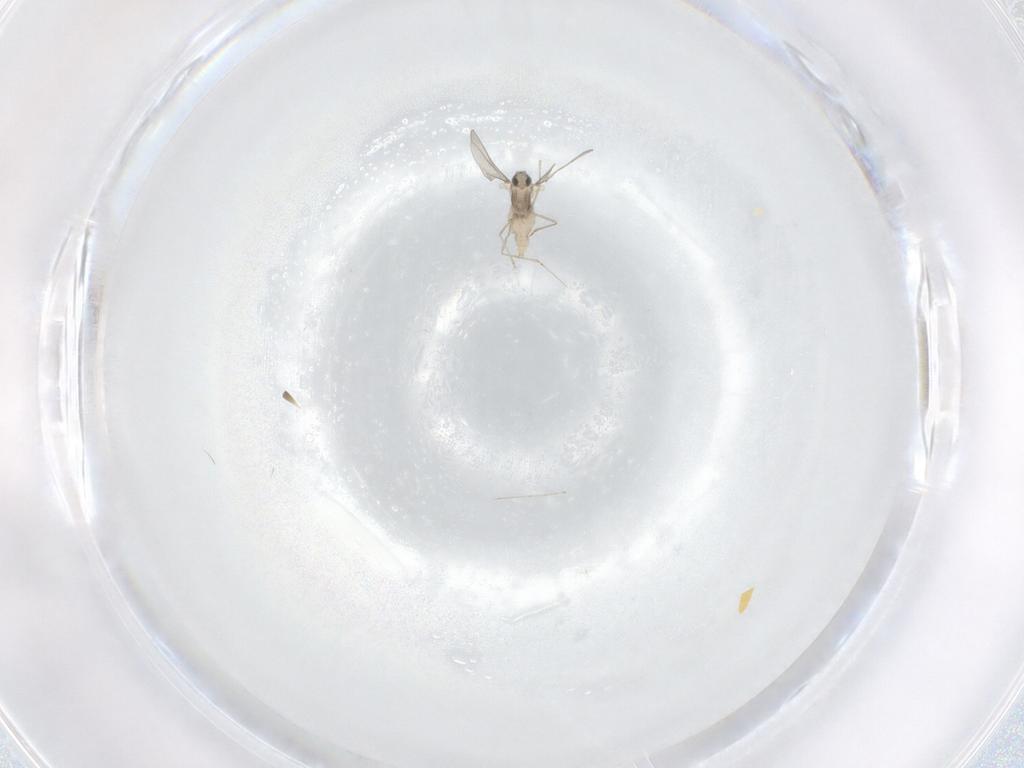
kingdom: Animalia
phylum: Arthropoda
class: Insecta
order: Diptera
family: Cecidomyiidae
